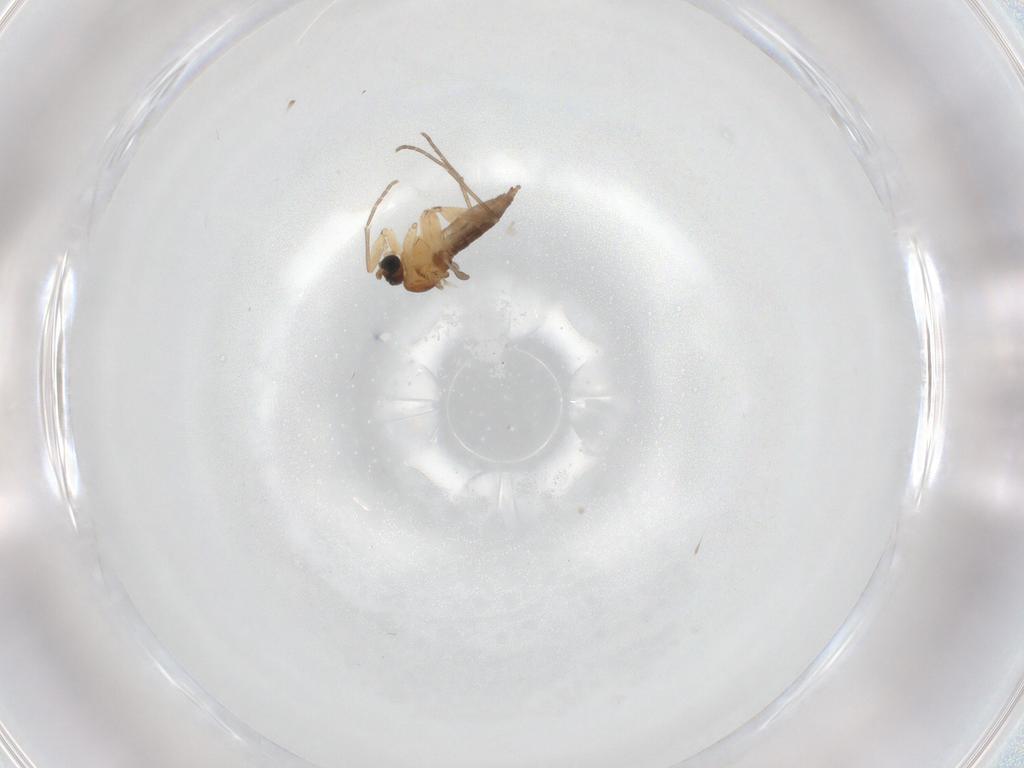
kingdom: Animalia
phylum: Arthropoda
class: Insecta
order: Diptera
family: Sciaridae
